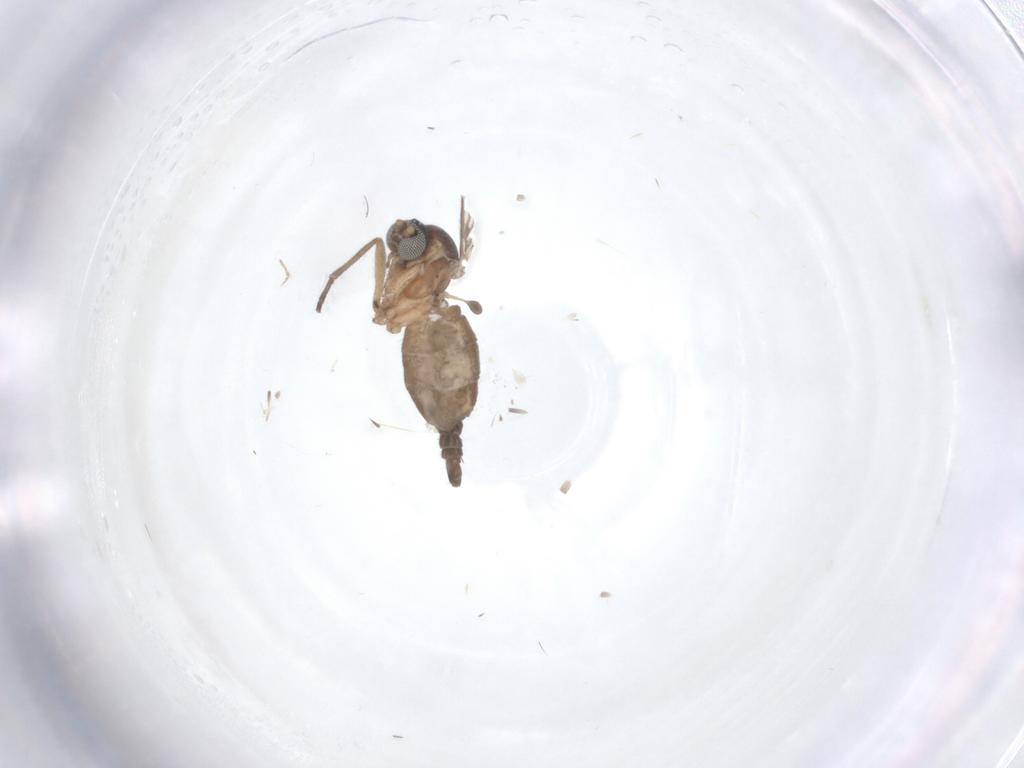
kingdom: Animalia
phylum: Arthropoda
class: Insecta
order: Diptera
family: Sciaridae
